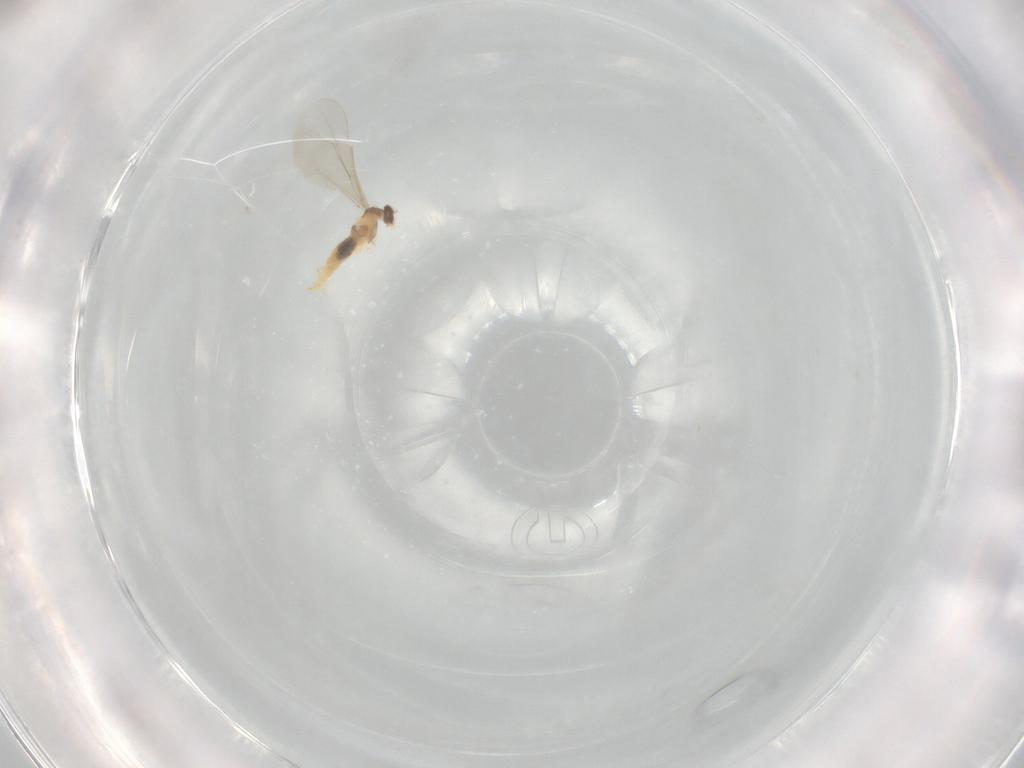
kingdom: Animalia
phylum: Arthropoda
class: Insecta
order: Diptera
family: Cecidomyiidae
